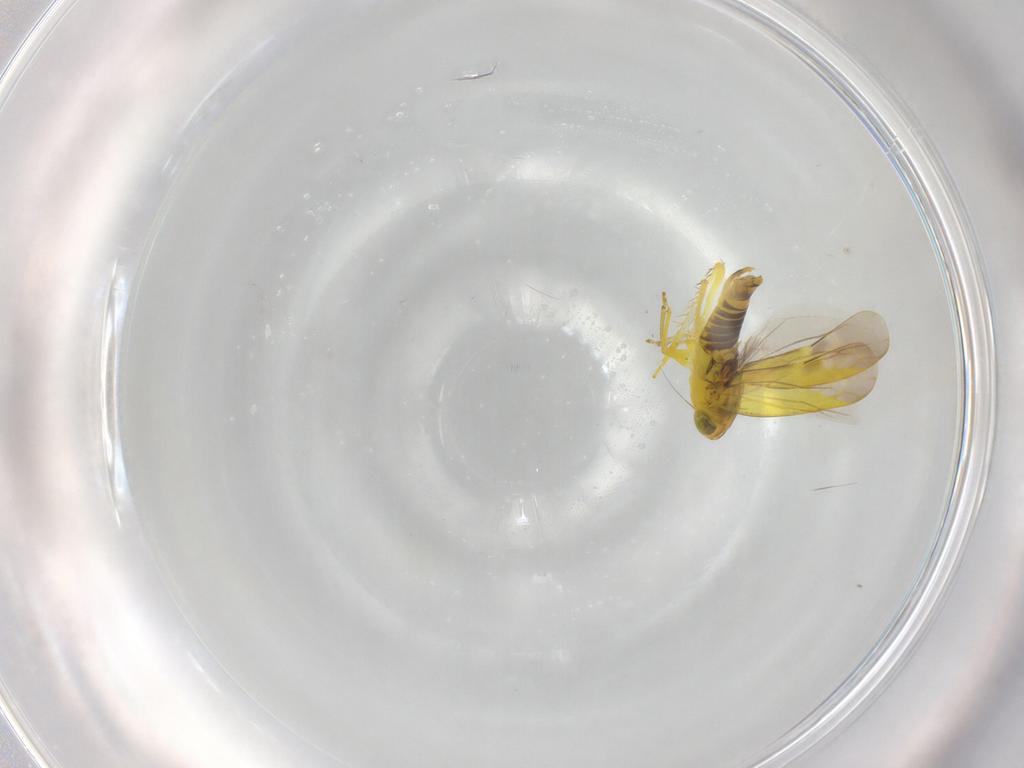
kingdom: Animalia
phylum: Arthropoda
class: Insecta
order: Hemiptera
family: Cicadellidae
